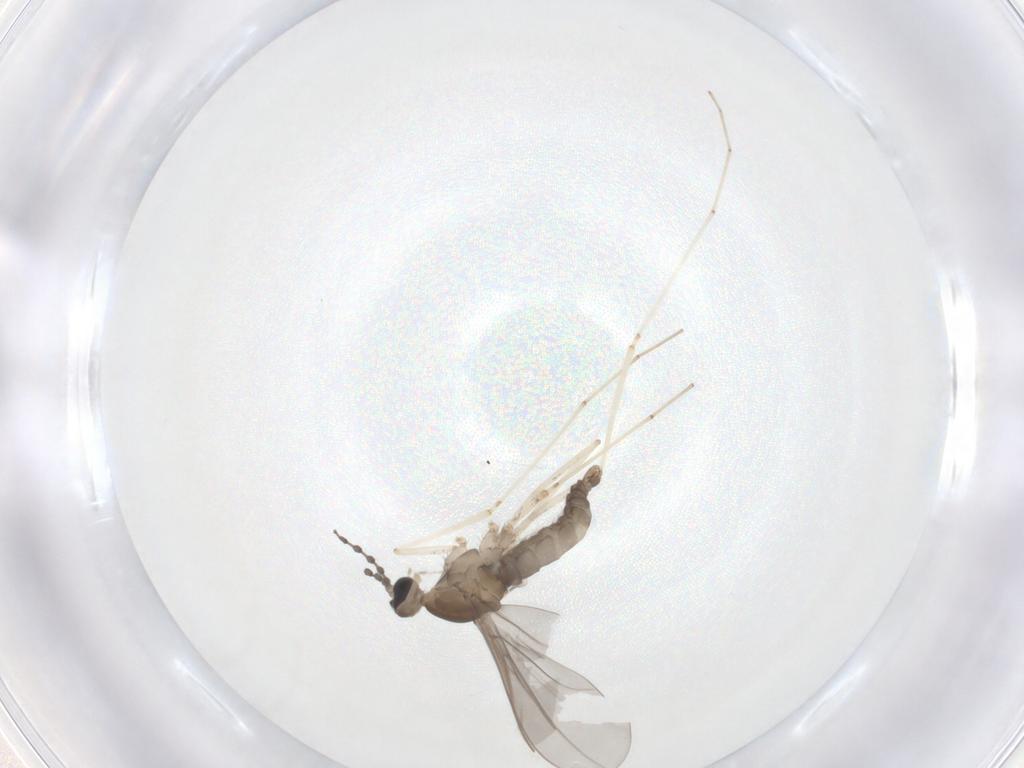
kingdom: Animalia
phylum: Arthropoda
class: Insecta
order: Diptera
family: Cecidomyiidae
